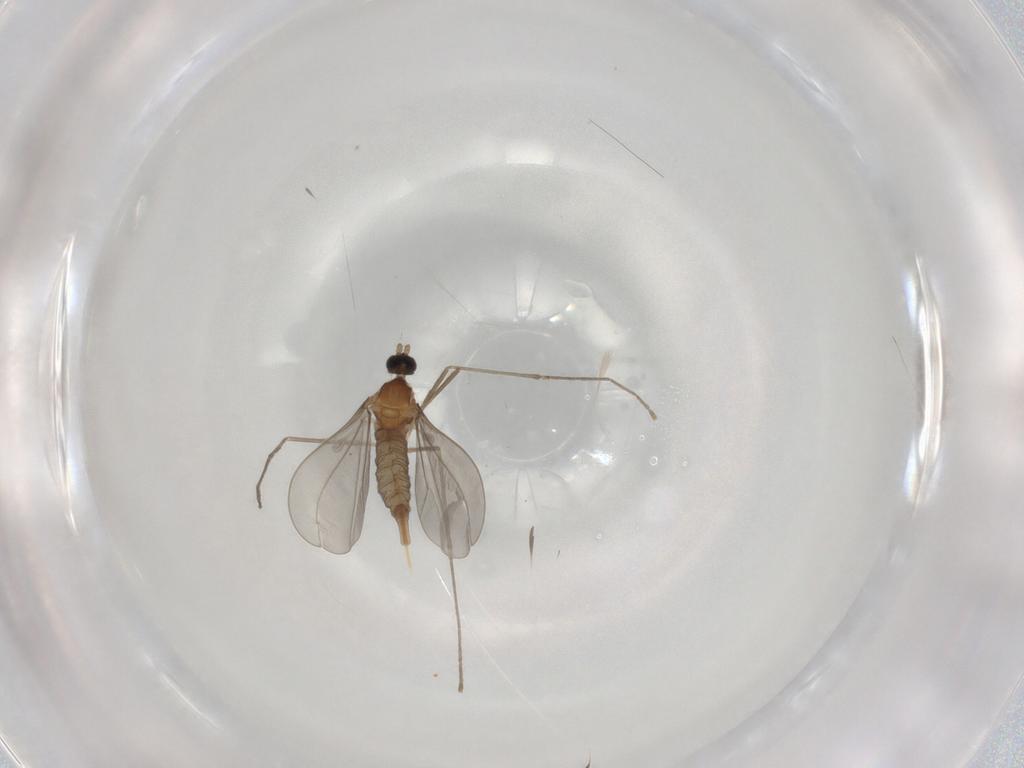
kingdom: Animalia
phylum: Arthropoda
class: Insecta
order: Diptera
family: Cecidomyiidae
